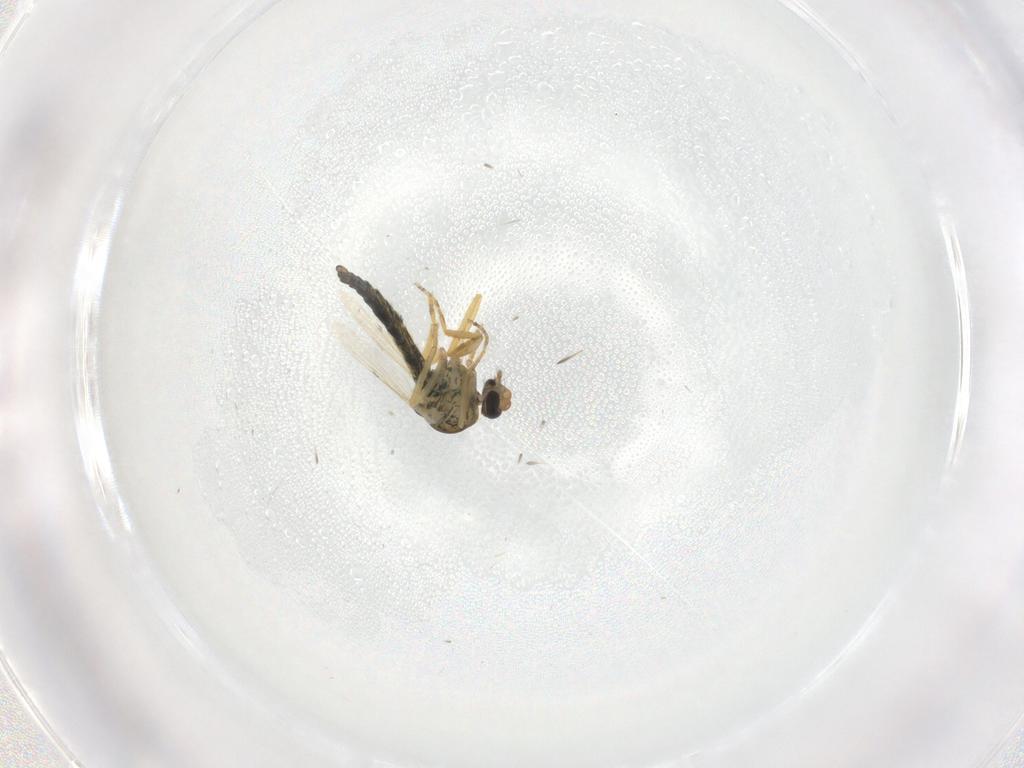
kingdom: Animalia
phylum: Arthropoda
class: Insecta
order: Diptera
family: Ceratopogonidae
